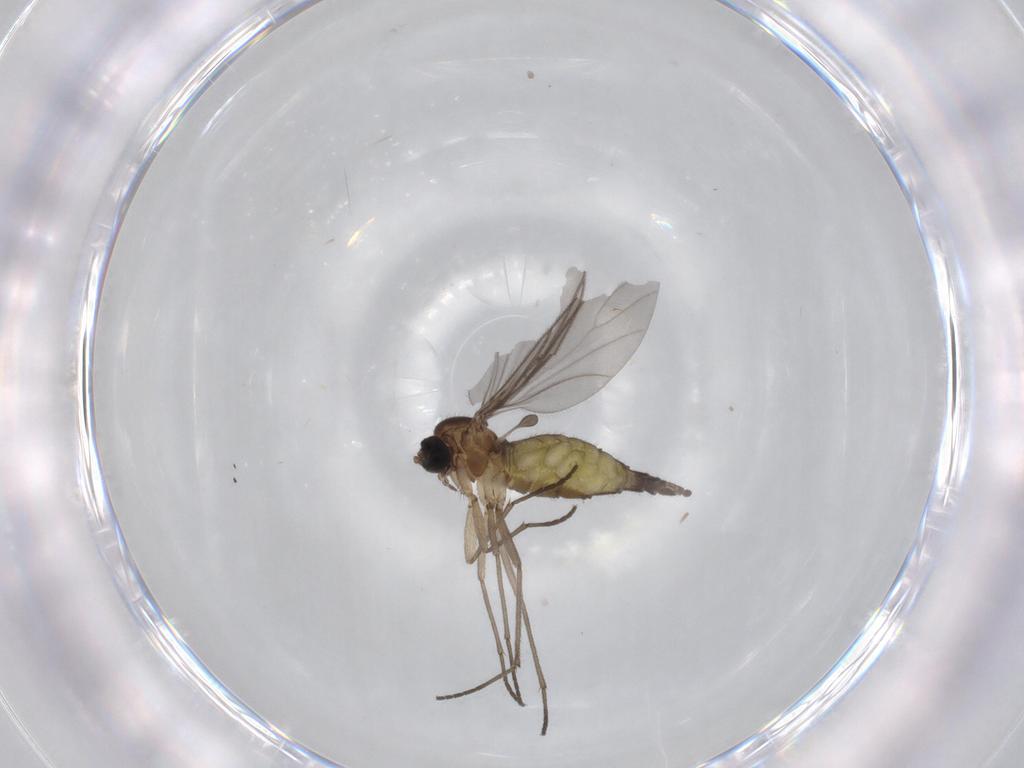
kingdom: Animalia
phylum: Arthropoda
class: Insecta
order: Diptera
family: Sciaridae
